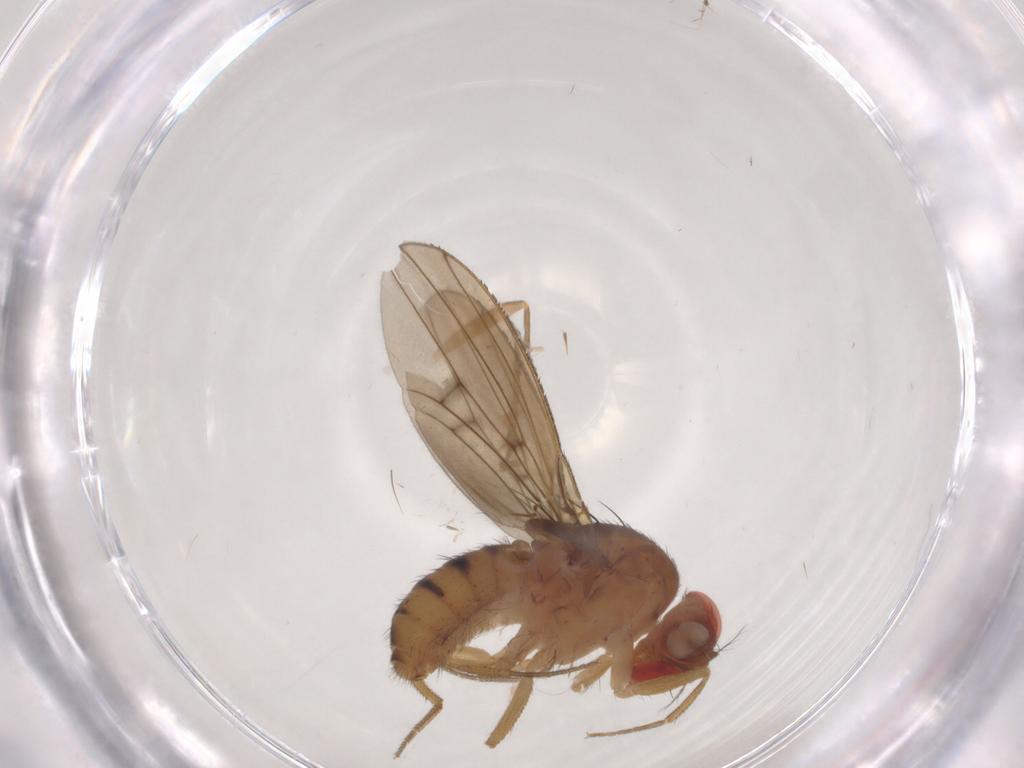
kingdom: Animalia
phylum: Arthropoda
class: Insecta
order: Diptera
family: Drosophilidae
